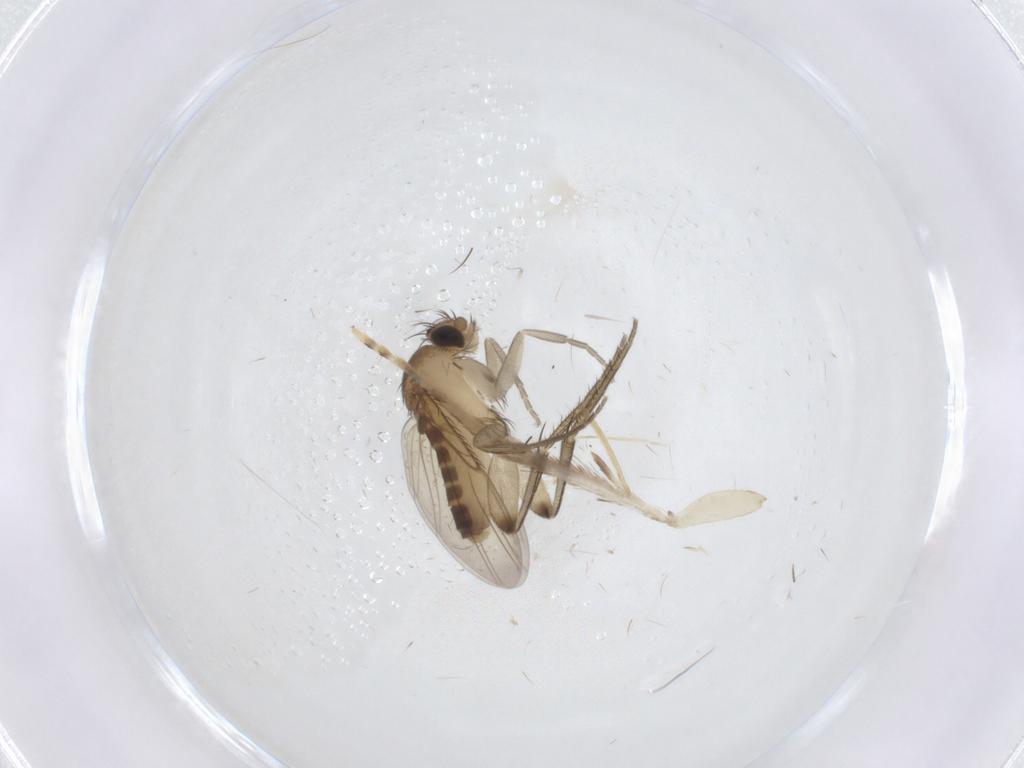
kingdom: Animalia
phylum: Arthropoda
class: Insecta
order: Diptera
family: Phoridae
